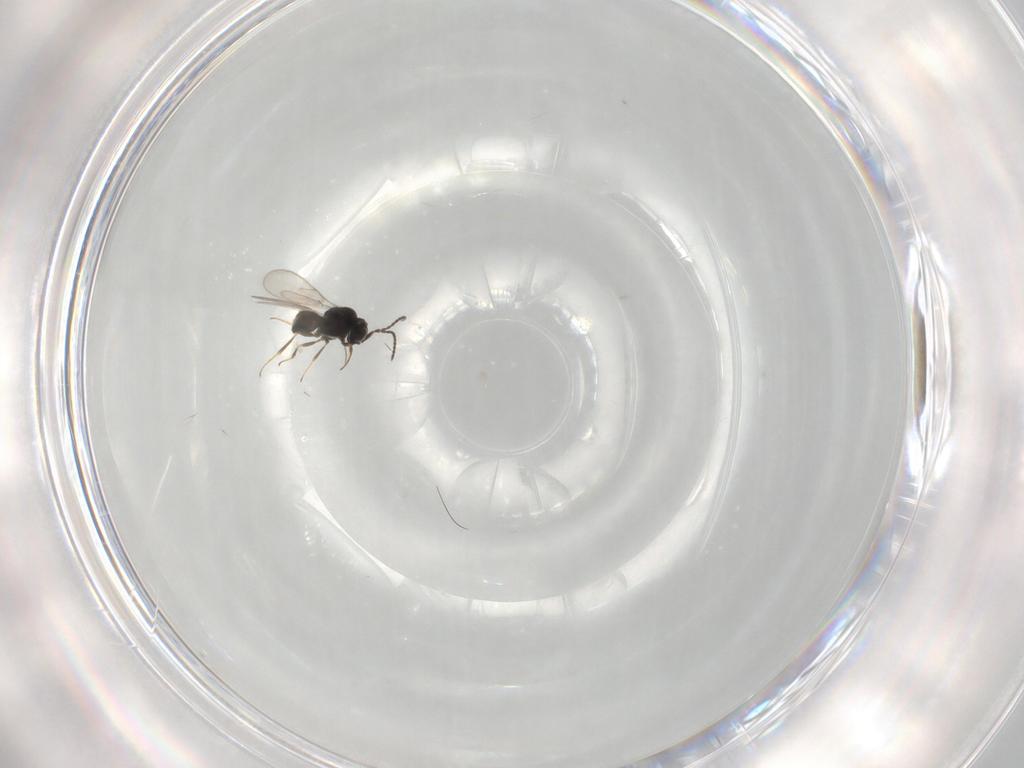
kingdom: Animalia
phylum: Arthropoda
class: Insecta
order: Hymenoptera
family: Scelionidae
